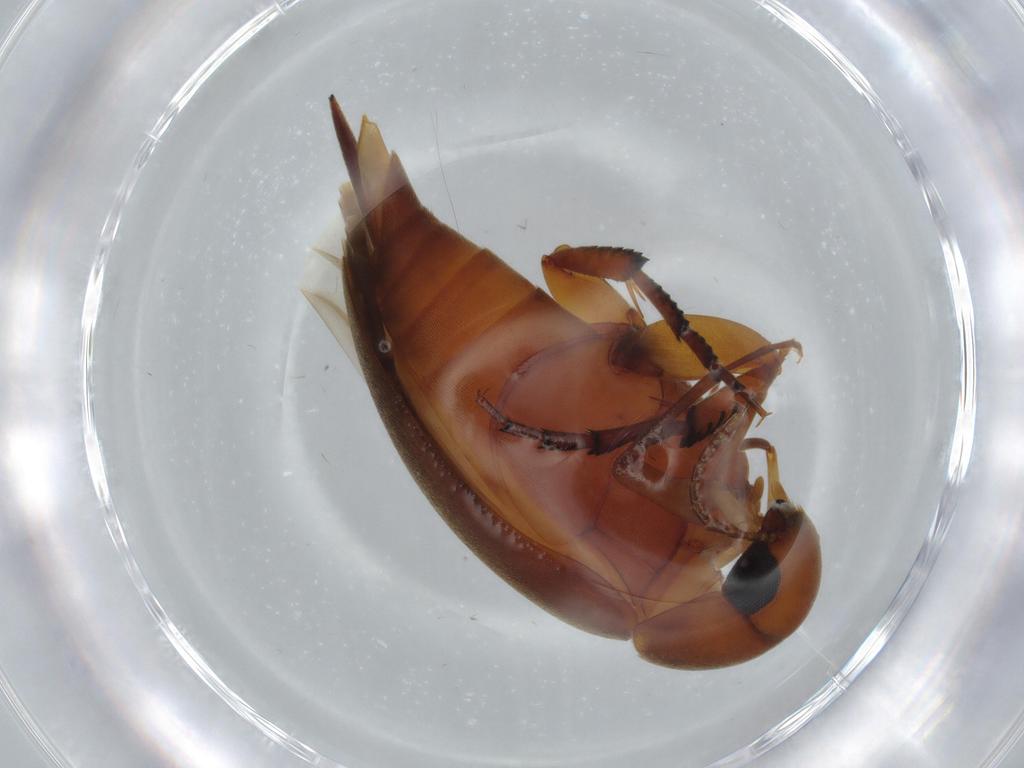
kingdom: Animalia
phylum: Arthropoda
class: Insecta
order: Coleoptera
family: Mordellidae
